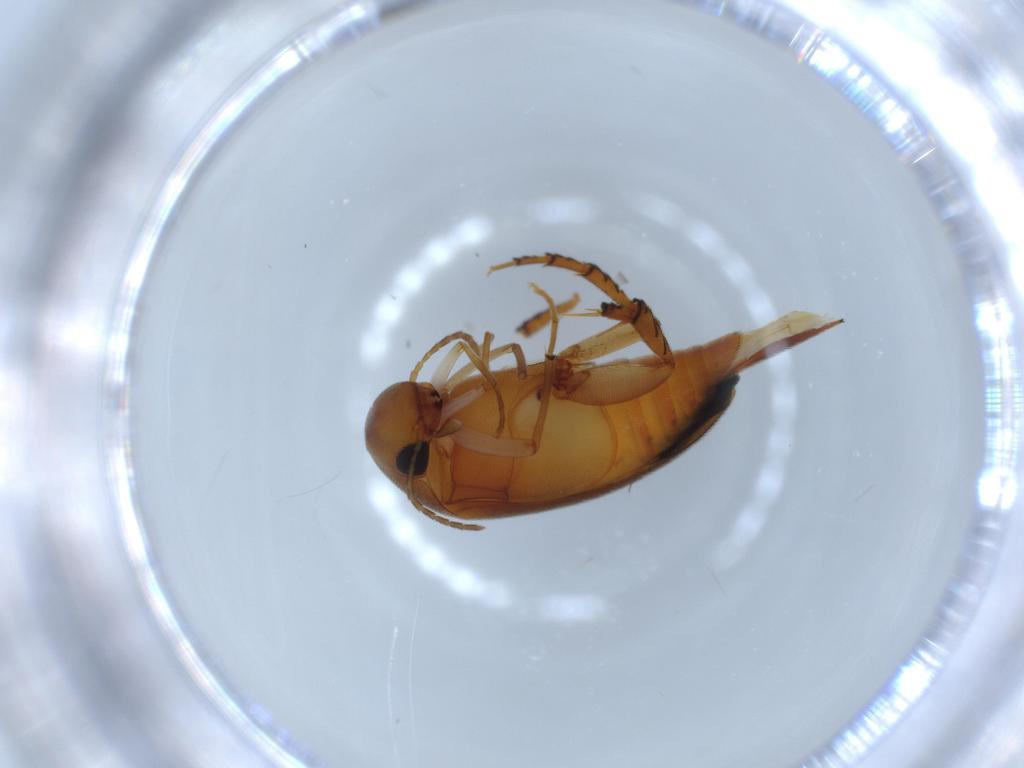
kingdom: Animalia
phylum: Arthropoda
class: Insecta
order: Coleoptera
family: Mordellidae
